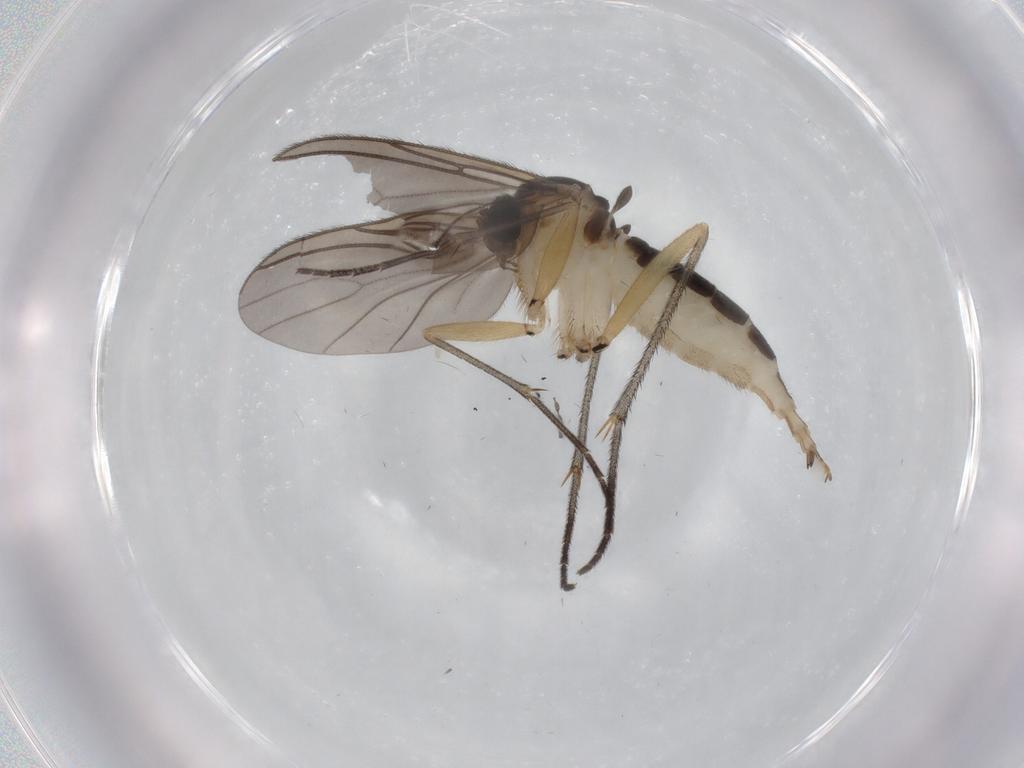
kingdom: Animalia
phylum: Arthropoda
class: Insecta
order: Diptera
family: Sciaridae
